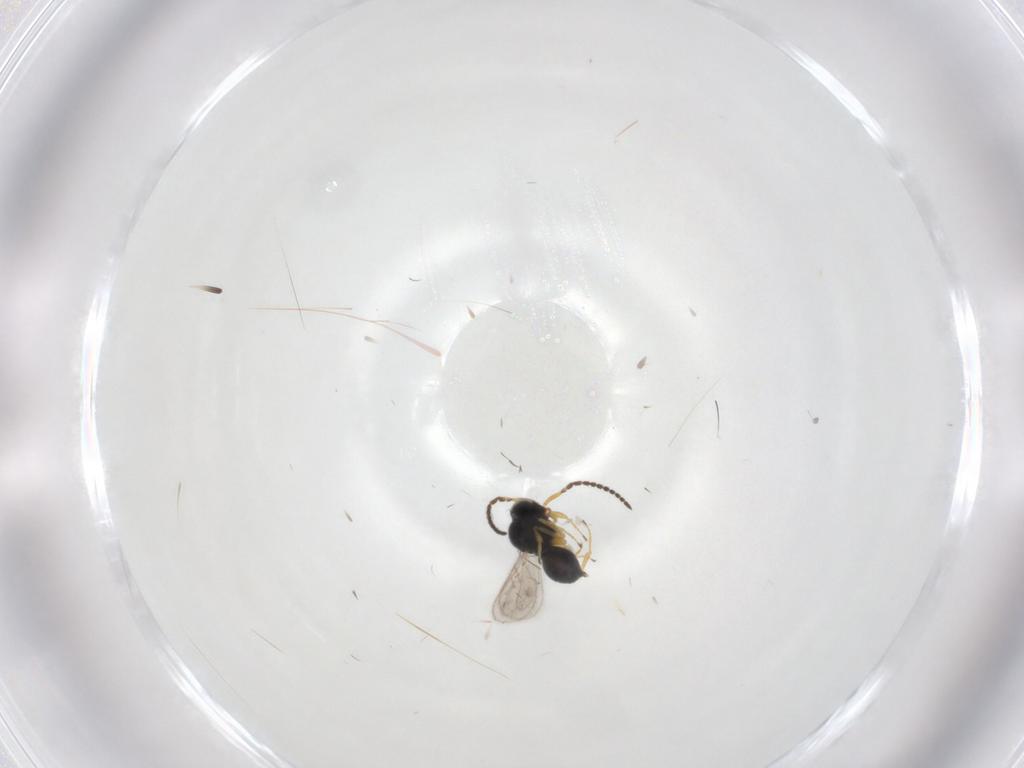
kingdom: Animalia
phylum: Arthropoda
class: Insecta
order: Hymenoptera
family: Scelionidae
